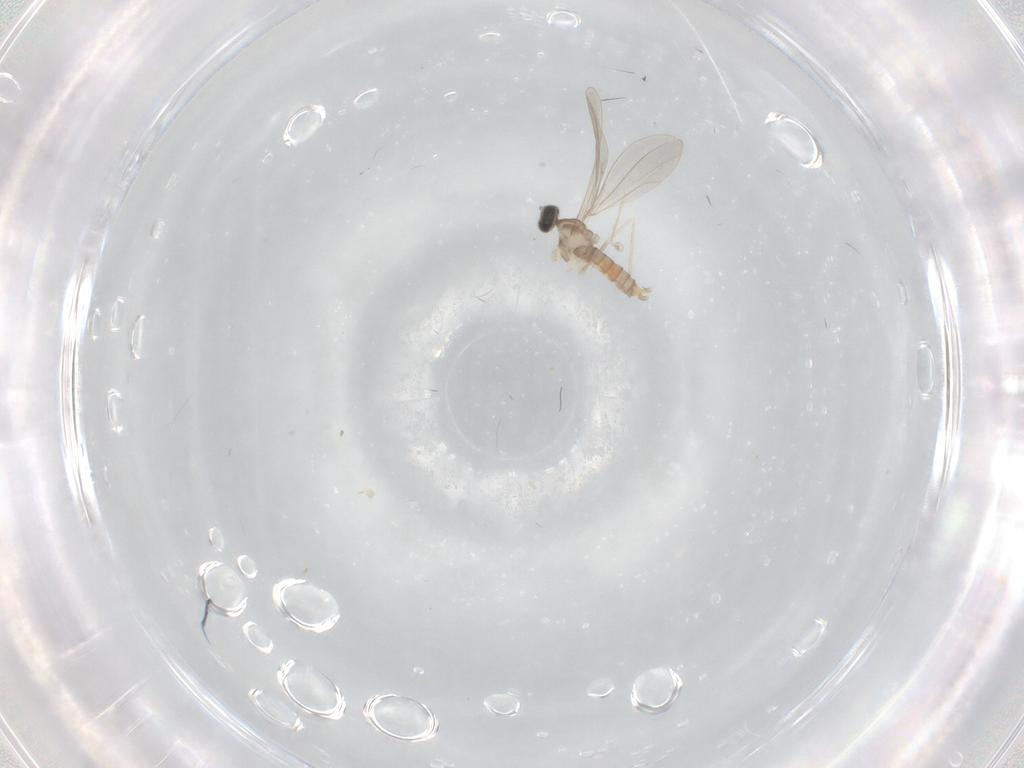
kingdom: Animalia
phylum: Arthropoda
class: Insecta
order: Diptera
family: Cecidomyiidae
